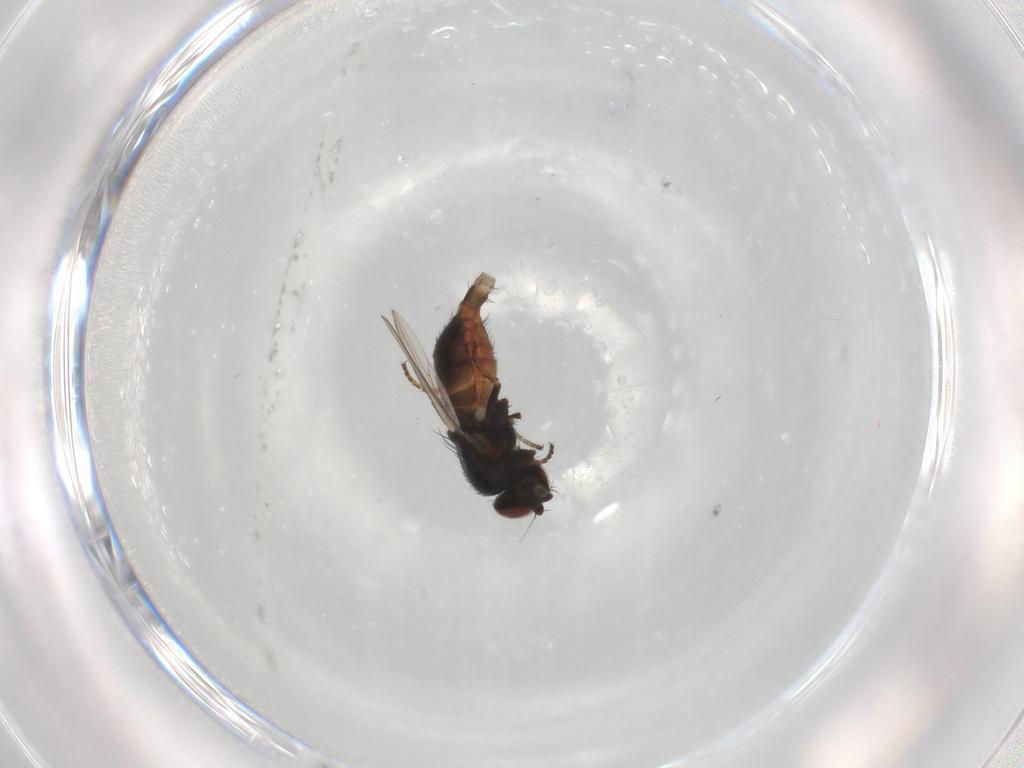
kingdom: Animalia
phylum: Arthropoda
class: Insecta
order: Diptera
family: Milichiidae
